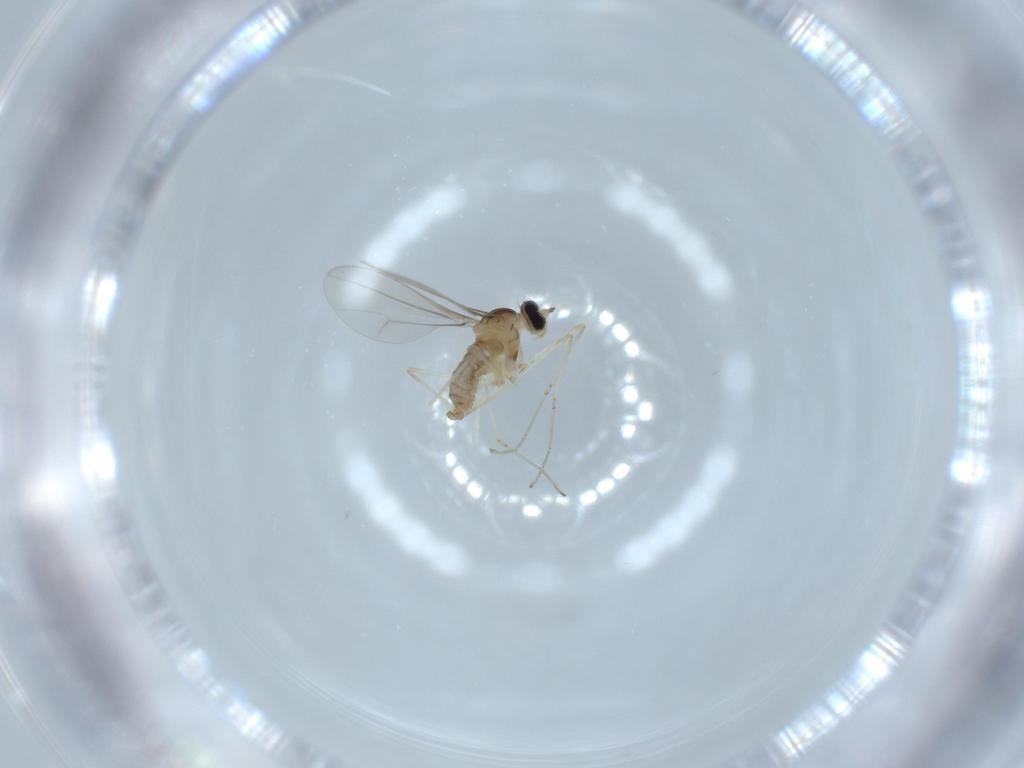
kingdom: Animalia
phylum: Arthropoda
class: Insecta
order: Diptera
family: Cecidomyiidae
